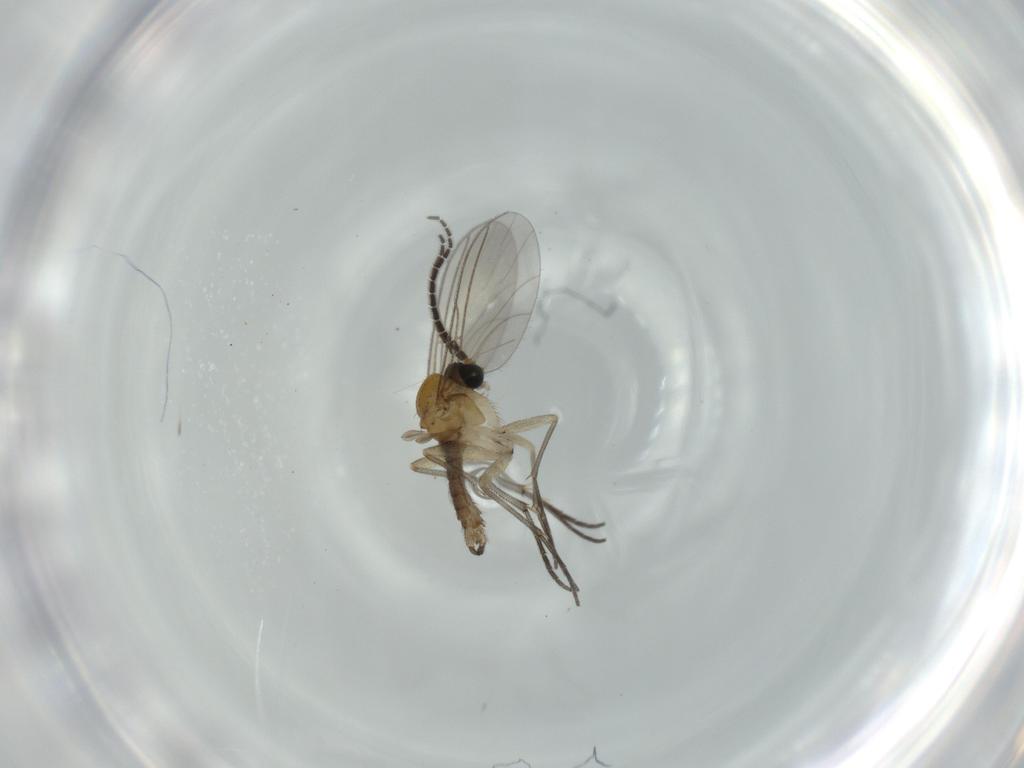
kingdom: Animalia
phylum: Arthropoda
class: Insecta
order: Diptera
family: Sciaridae
